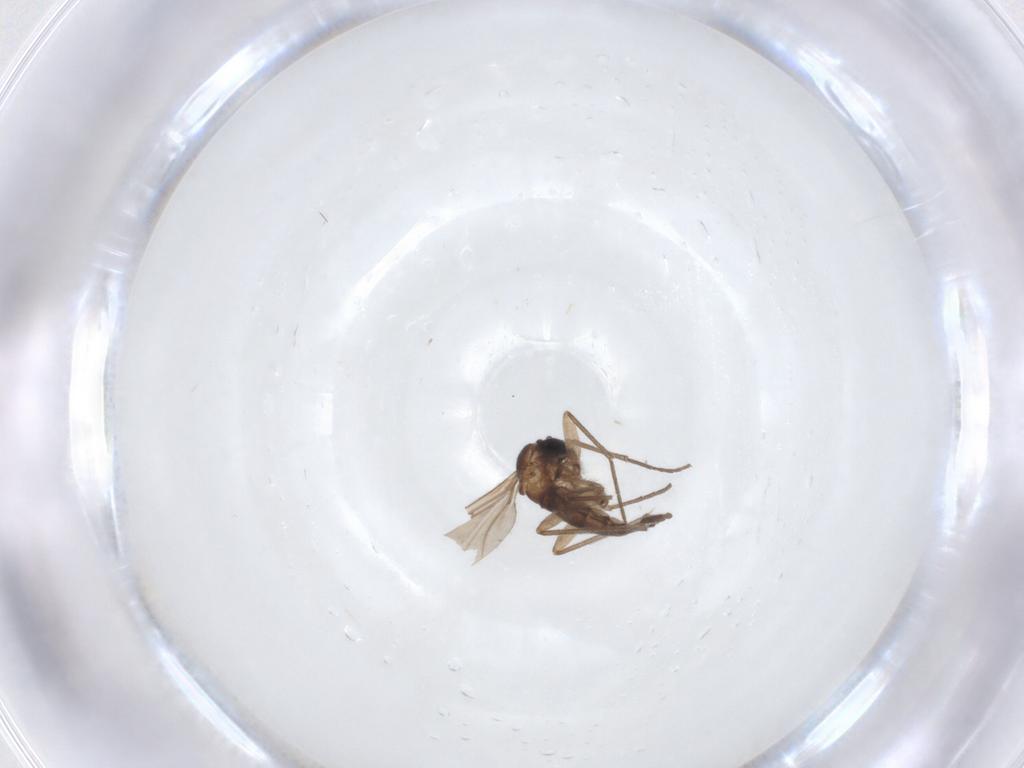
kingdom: Animalia
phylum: Arthropoda
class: Insecta
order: Diptera
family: Sciaridae
